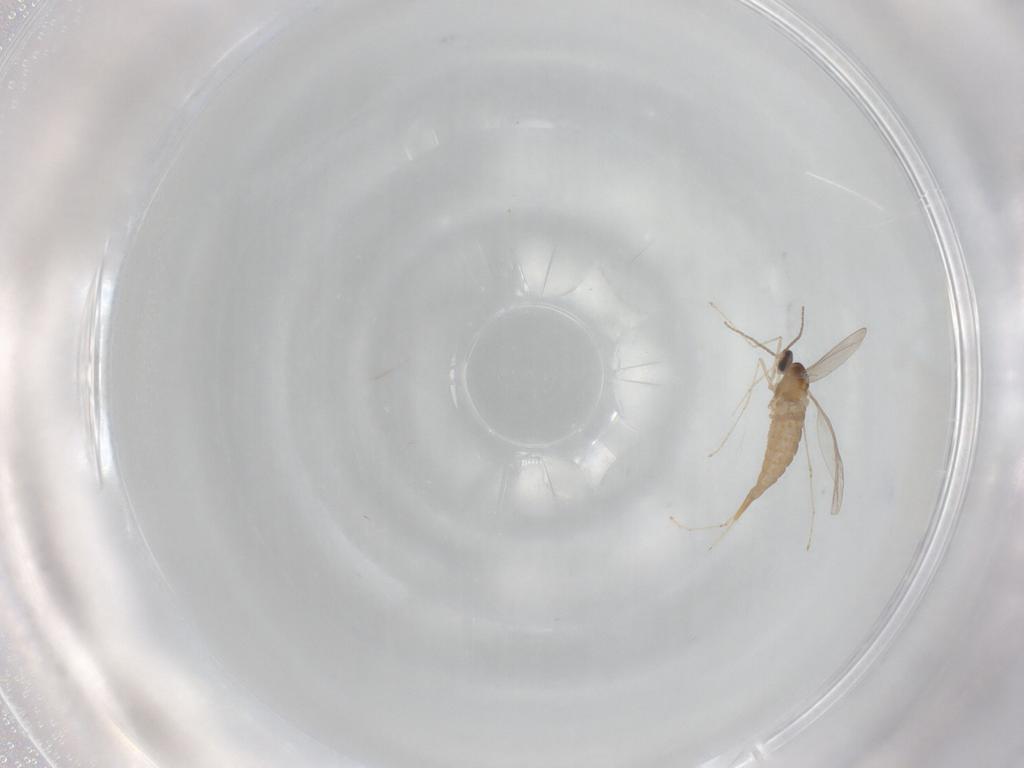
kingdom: Animalia
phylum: Arthropoda
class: Insecta
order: Diptera
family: Cecidomyiidae
